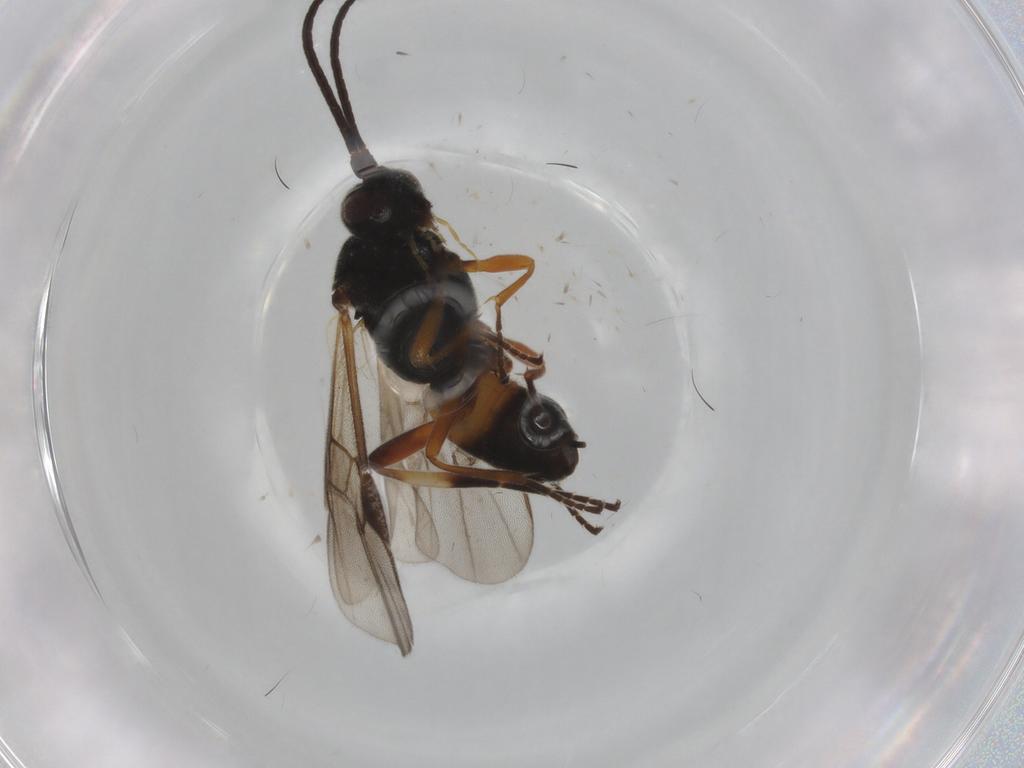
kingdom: Animalia
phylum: Arthropoda
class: Insecta
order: Hymenoptera
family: Braconidae
